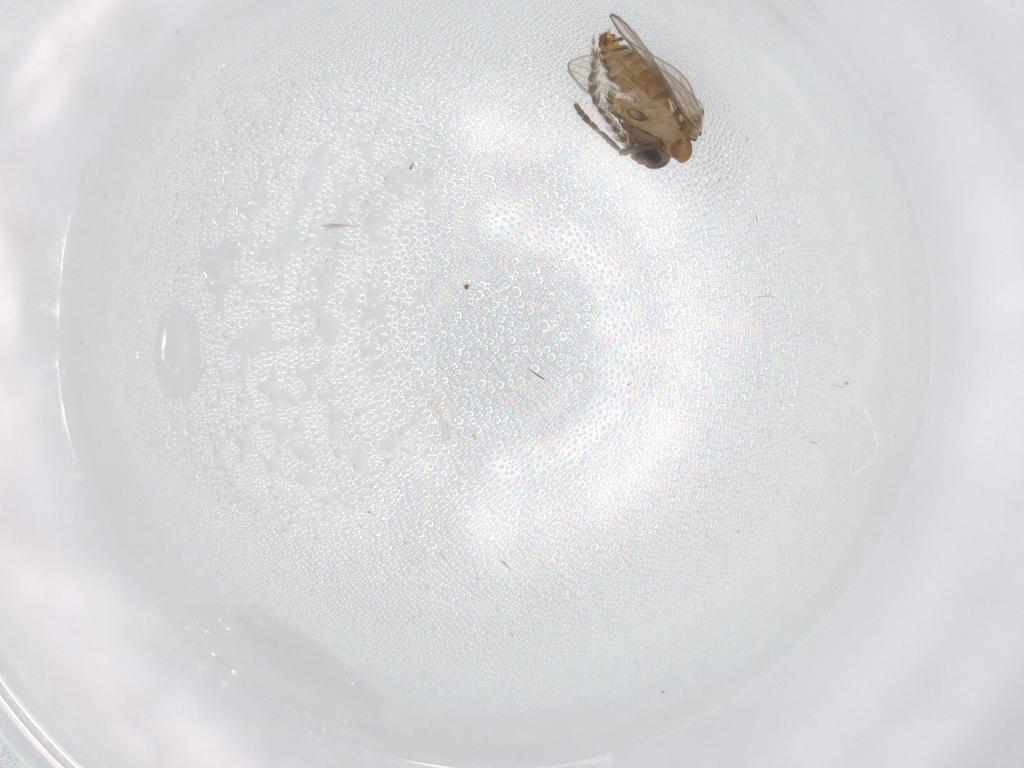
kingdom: Animalia
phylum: Arthropoda
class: Insecta
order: Diptera
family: Psychodidae
